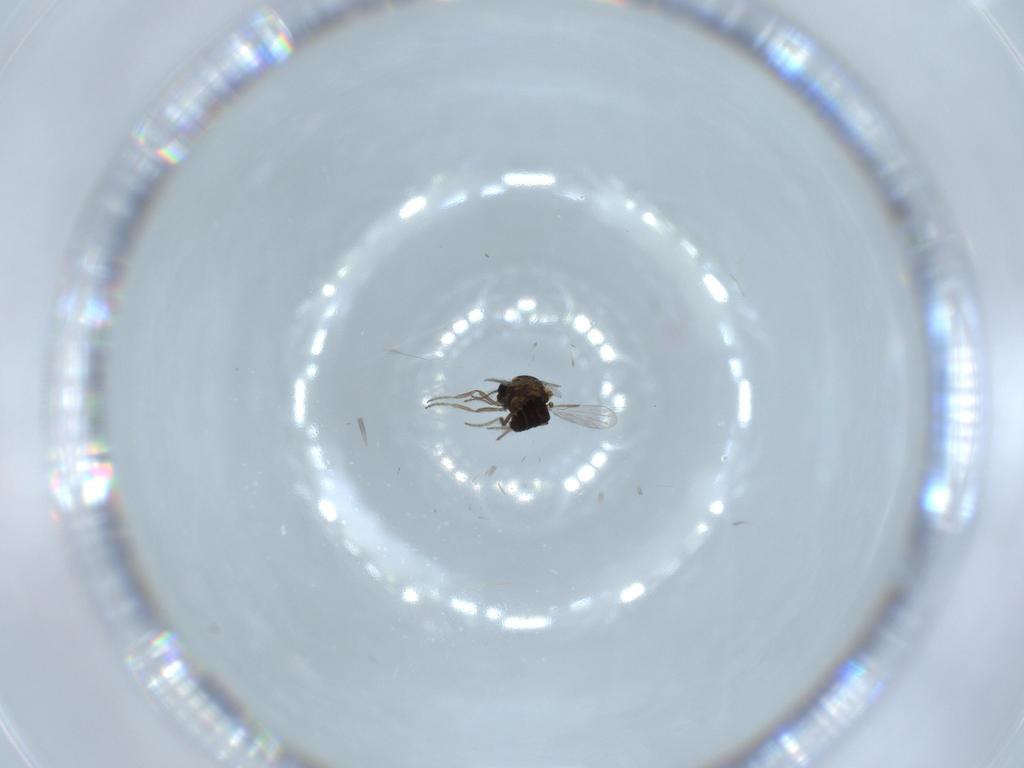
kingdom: Animalia
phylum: Arthropoda
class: Insecta
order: Diptera
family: Ceratopogonidae
